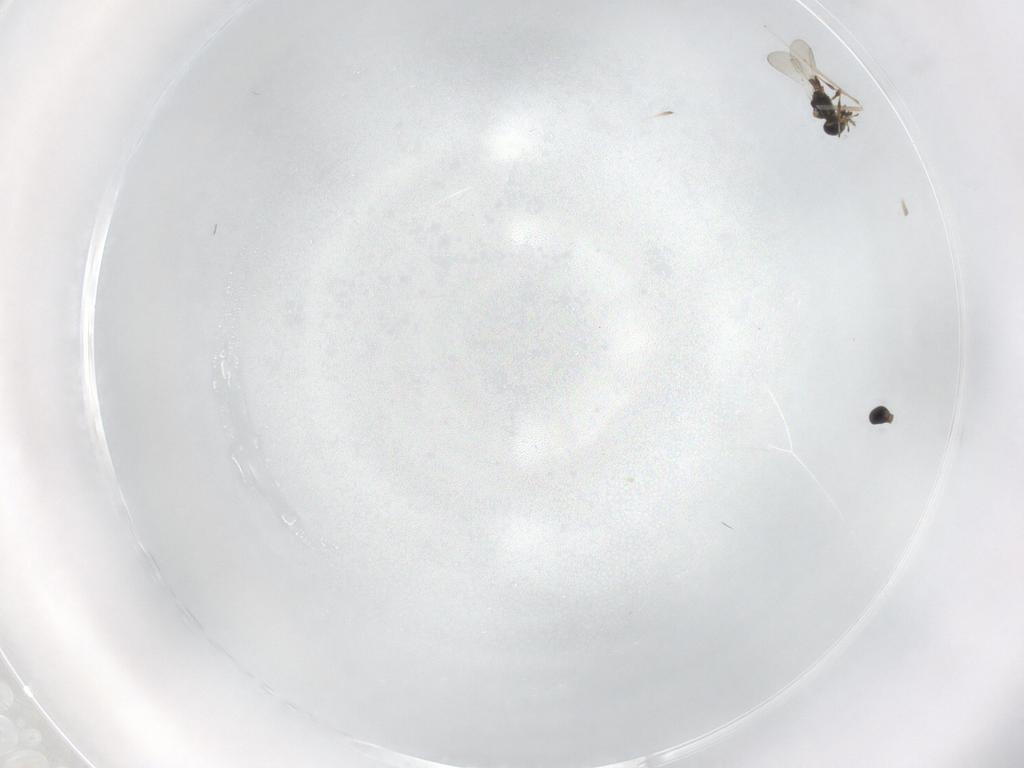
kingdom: Animalia
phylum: Arthropoda
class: Insecta
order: Hymenoptera
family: Platygastridae
